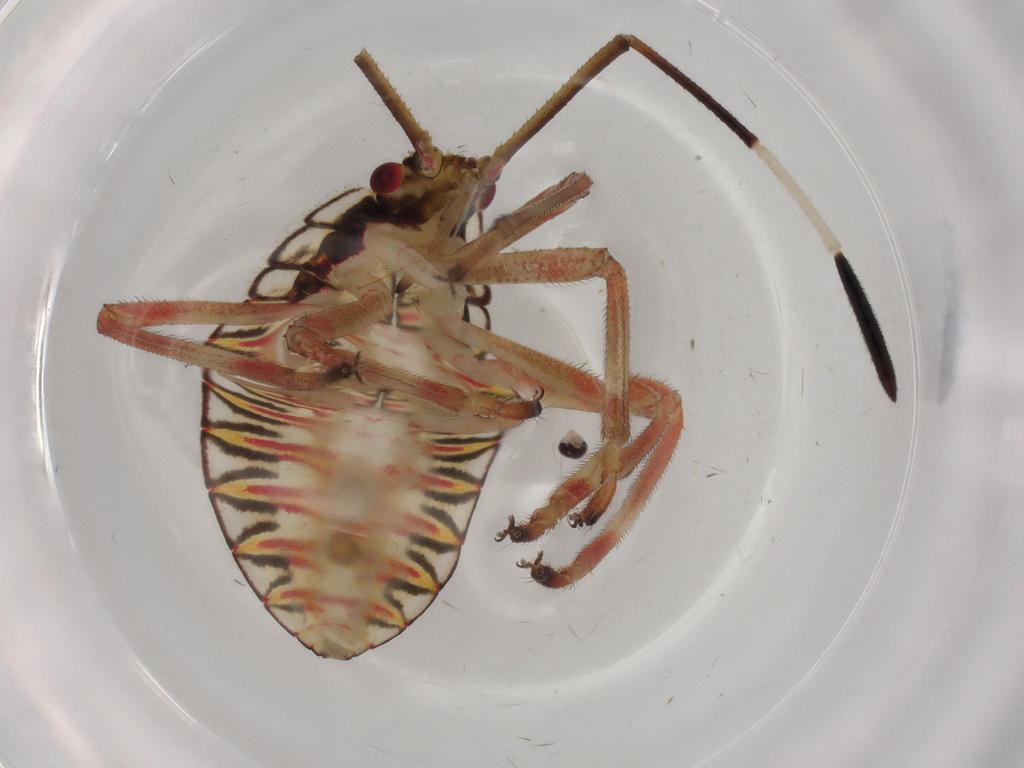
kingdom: Animalia
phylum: Arthropoda
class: Insecta
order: Hemiptera
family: Coreidae
